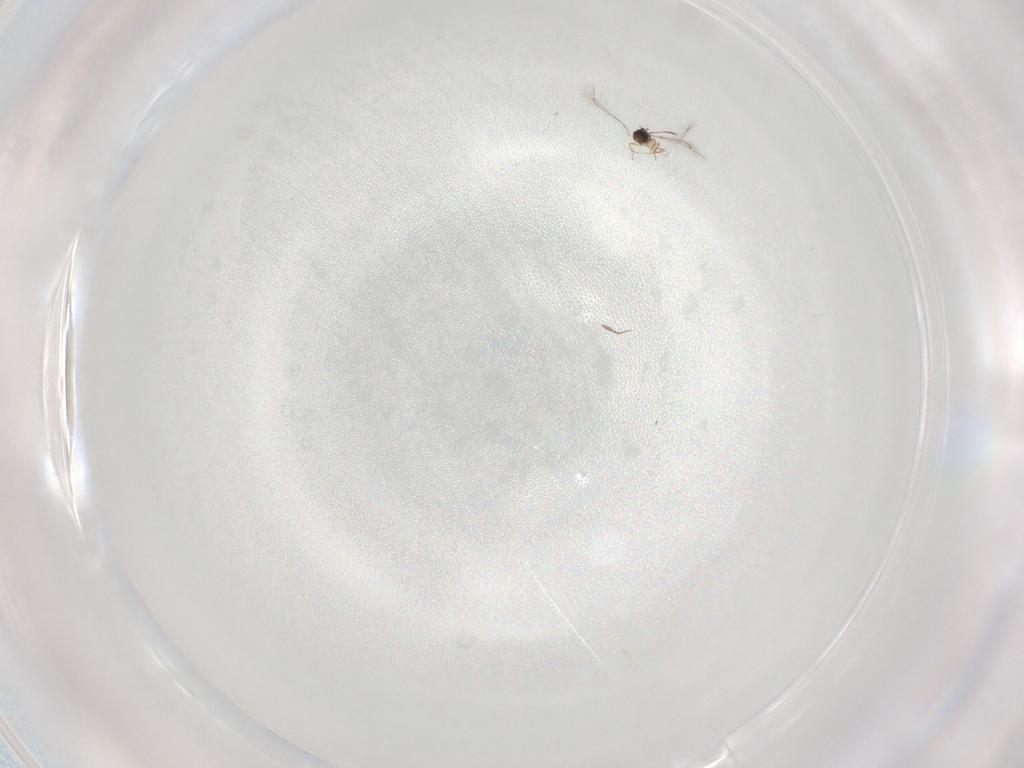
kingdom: Animalia
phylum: Arthropoda
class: Insecta
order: Hymenoptera
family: Mymaridae
